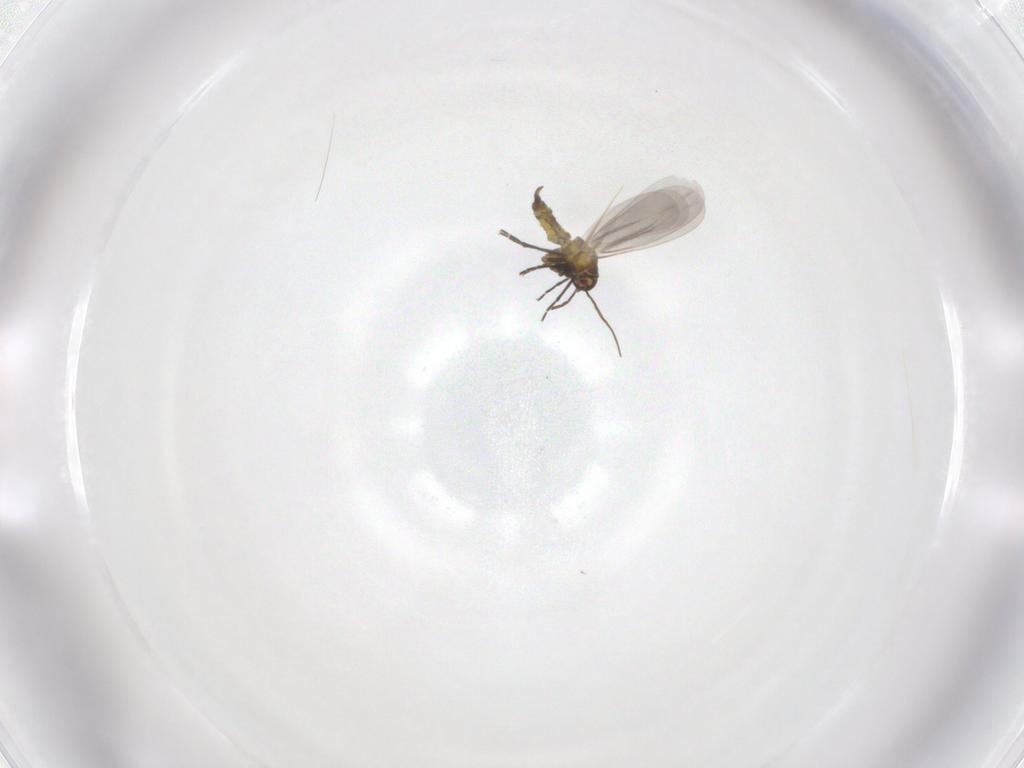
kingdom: Animalia
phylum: Arthropoda
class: Insecta
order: Hemiptera
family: Aleyrodidae
